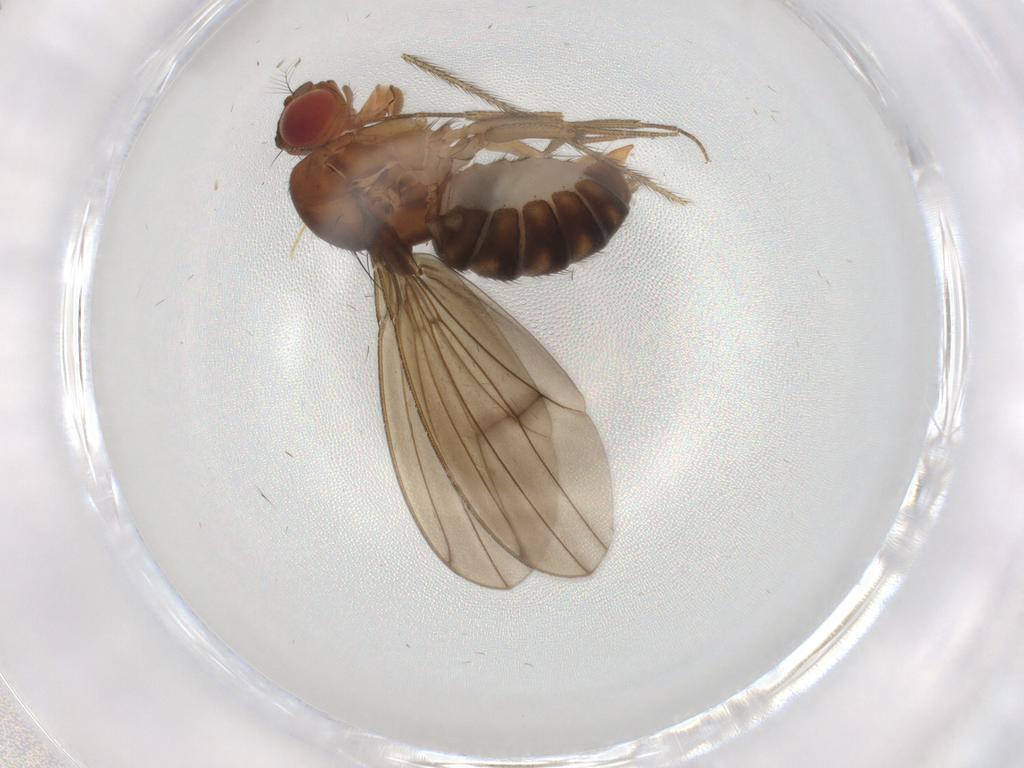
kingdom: Animalia
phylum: Arthropoda
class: Insecta
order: Diptera
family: Drosophilidae
